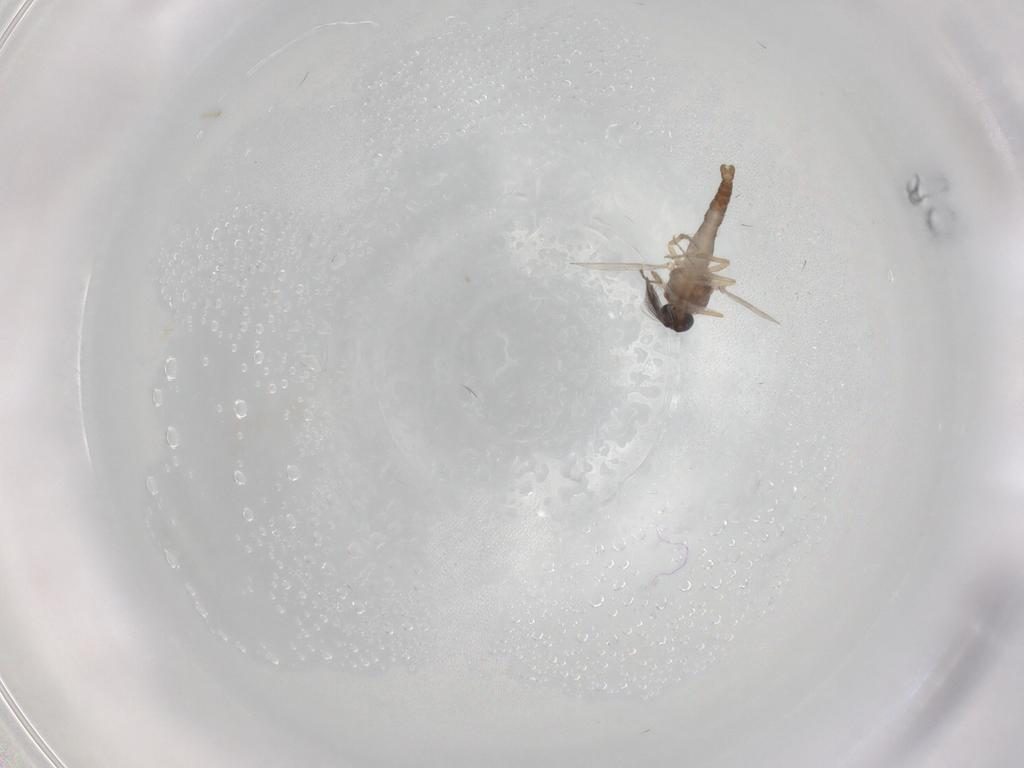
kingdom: Animalia
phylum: Arthropoda
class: Insecta
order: Diptera
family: Ceratopogonidae
